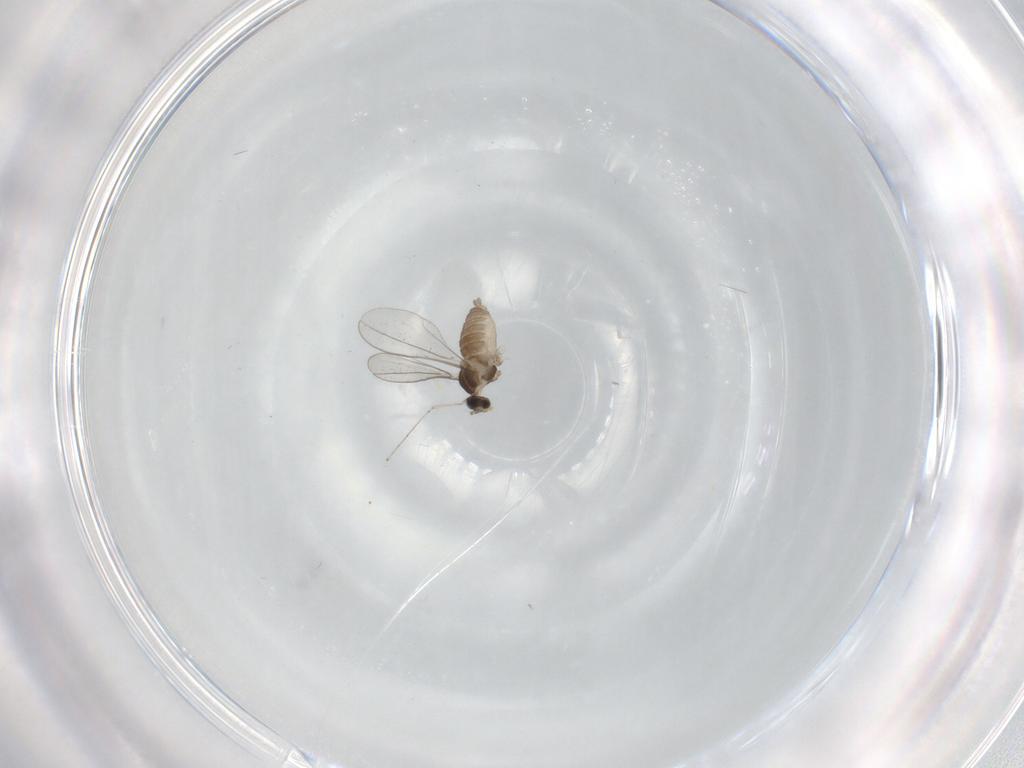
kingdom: Animalia
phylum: Arthropoda
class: Insecta
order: Diptera
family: Cecidomyiidae
